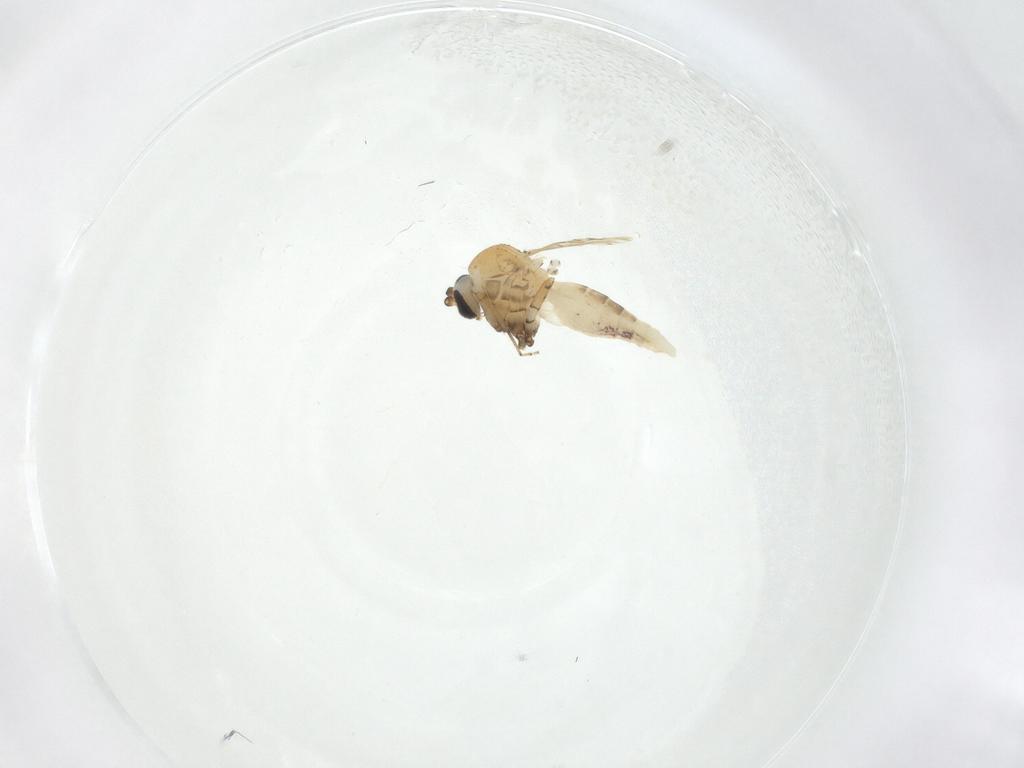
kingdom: Animalia
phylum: Arthropoda
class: Insecta
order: Diptera
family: Ceratopogonidae
